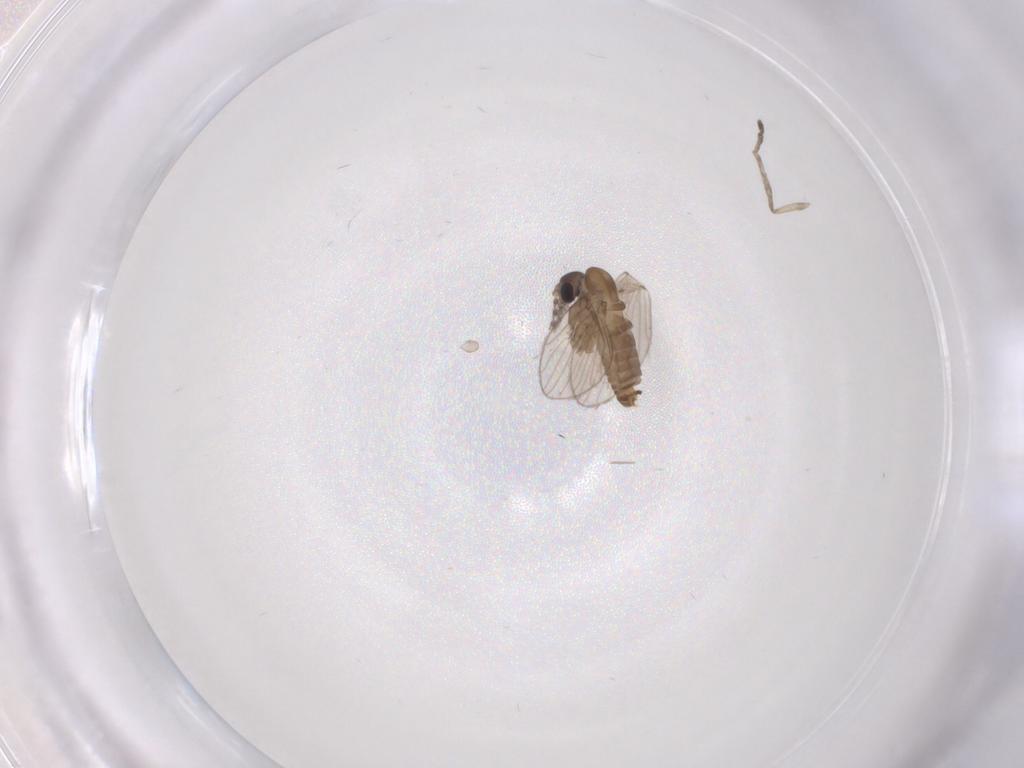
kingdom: Animalia
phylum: Arthropoda
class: Insecta
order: Diptera
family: Psychodidae
